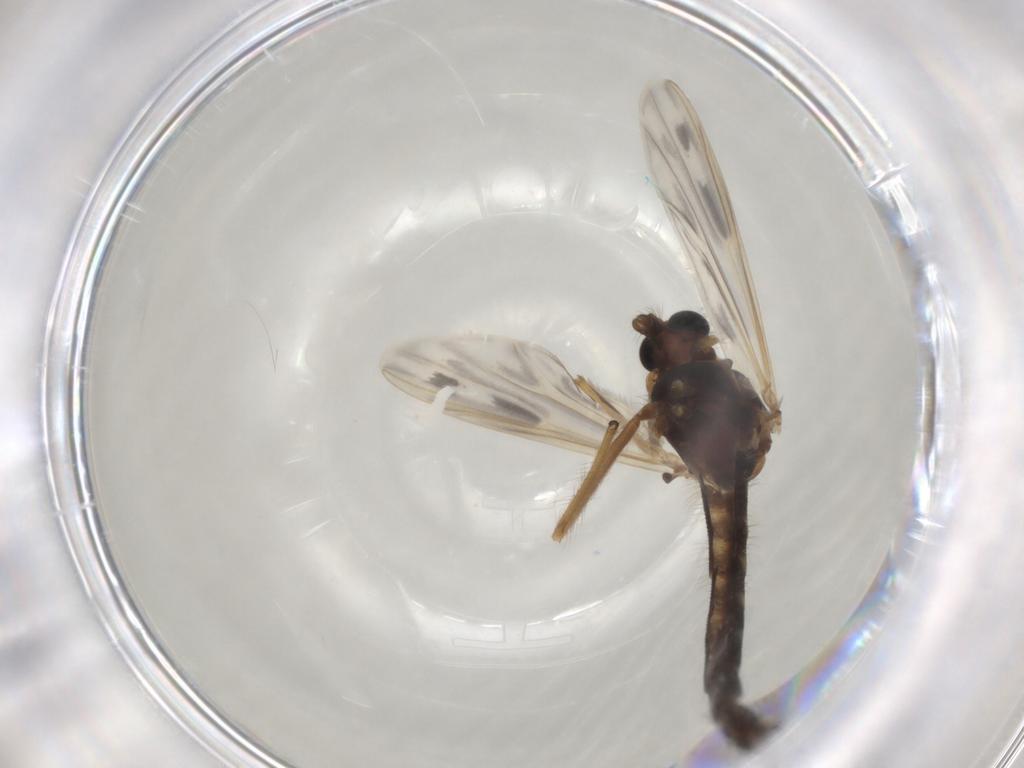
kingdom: Animalia
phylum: Arthropoda
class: Insecta
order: Diptera
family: Chironomidae
